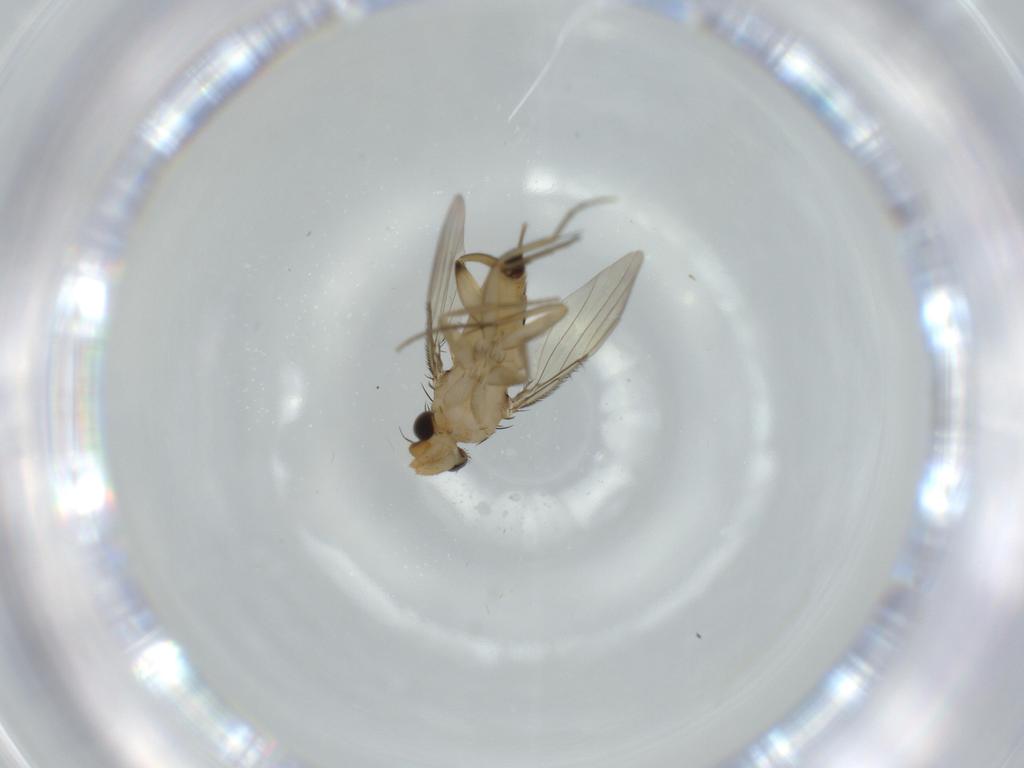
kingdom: Animalia
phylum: Arthropoda
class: Insecta
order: Diptera
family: Phoridae
